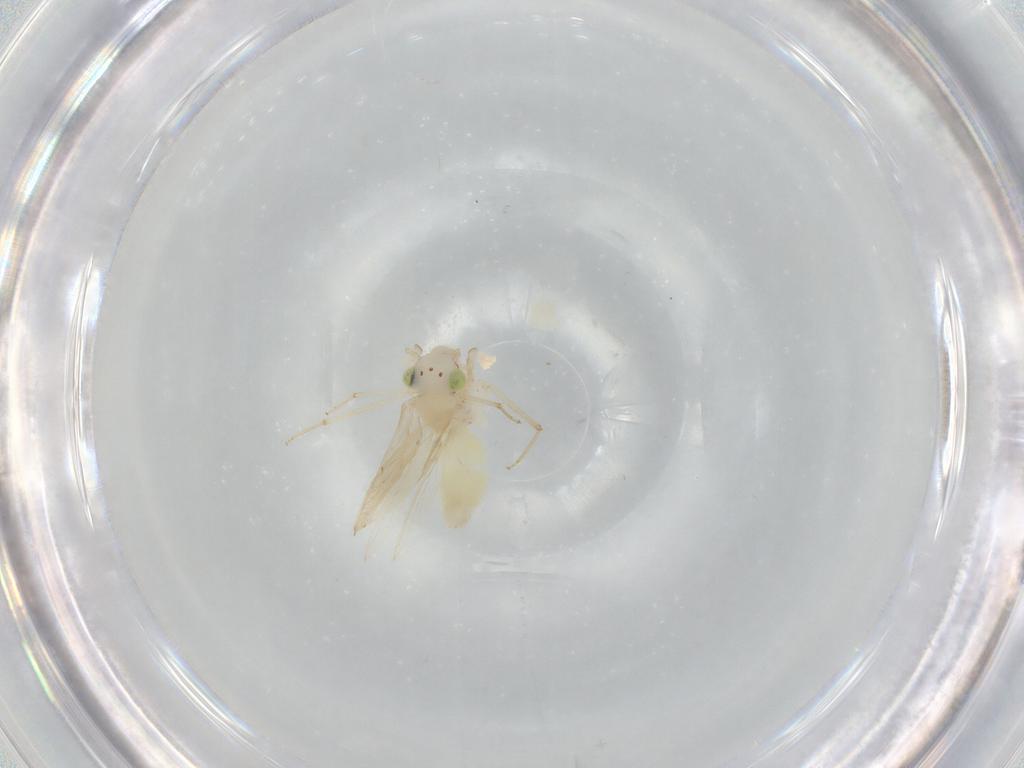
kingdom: Animalia
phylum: Arthropoda
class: Insecta
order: Psocodea
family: Lepidopsocidae
